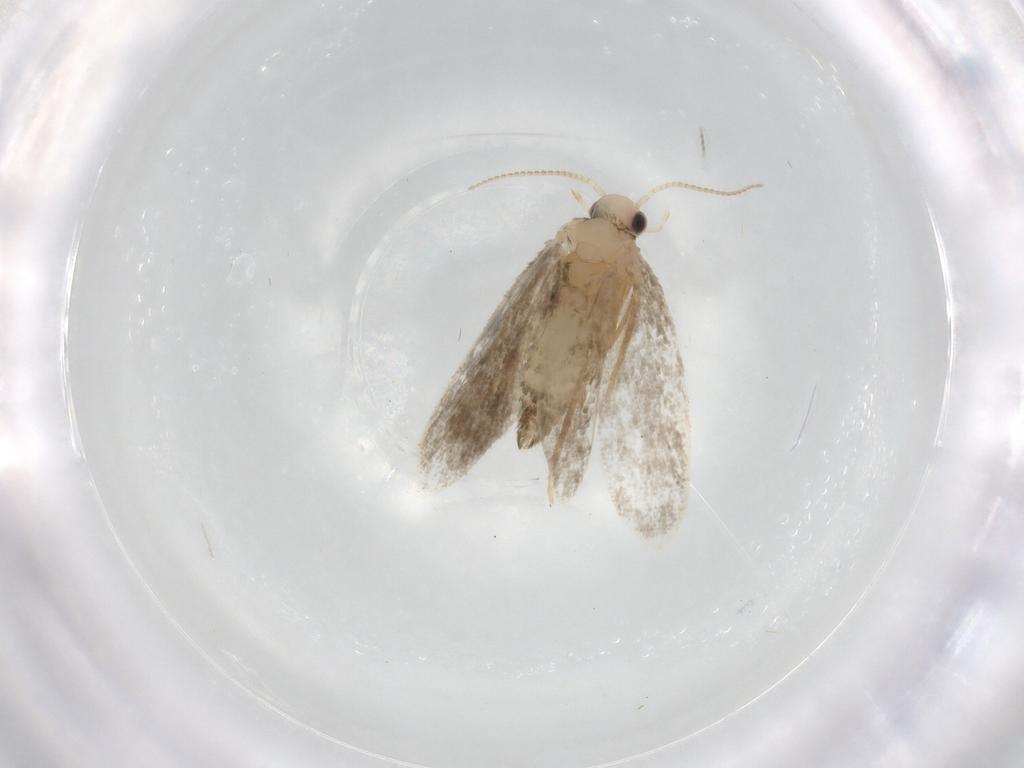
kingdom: Animalia
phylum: Arthropoda
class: Insecta
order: Lepidoptera
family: Psychidae
